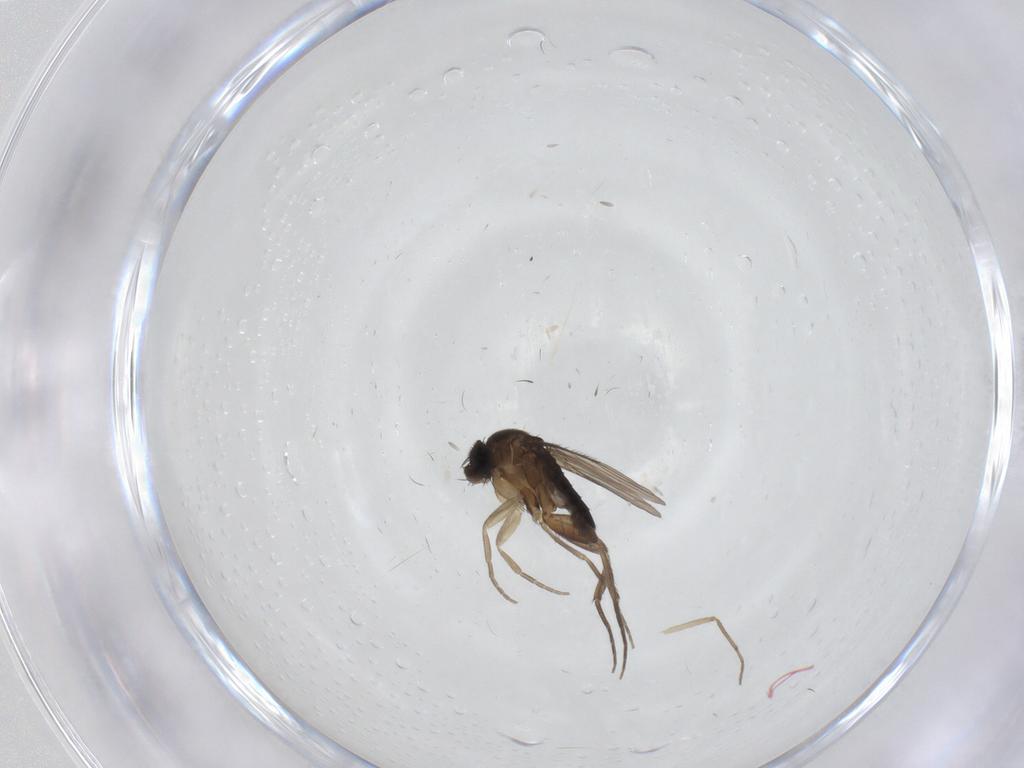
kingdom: Animalia
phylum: Arthropoda
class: Insecta
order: Diptera
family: Phoridae
